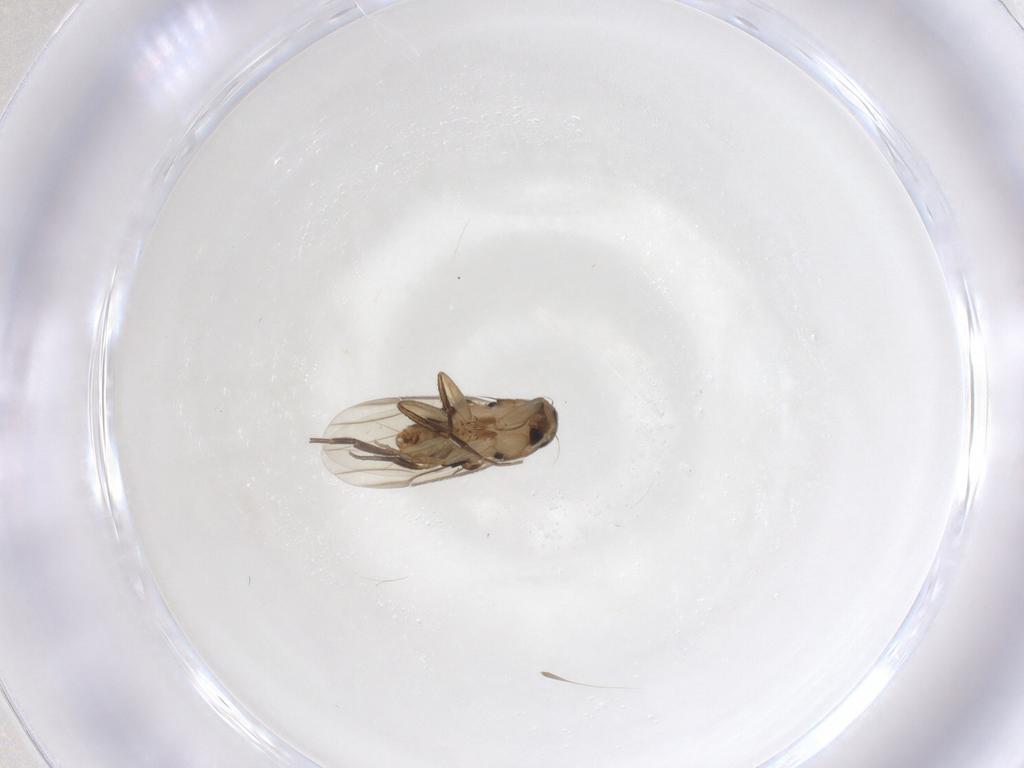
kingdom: Animalia
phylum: Arthropoda
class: Insecta
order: Diptera
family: Phoridae
